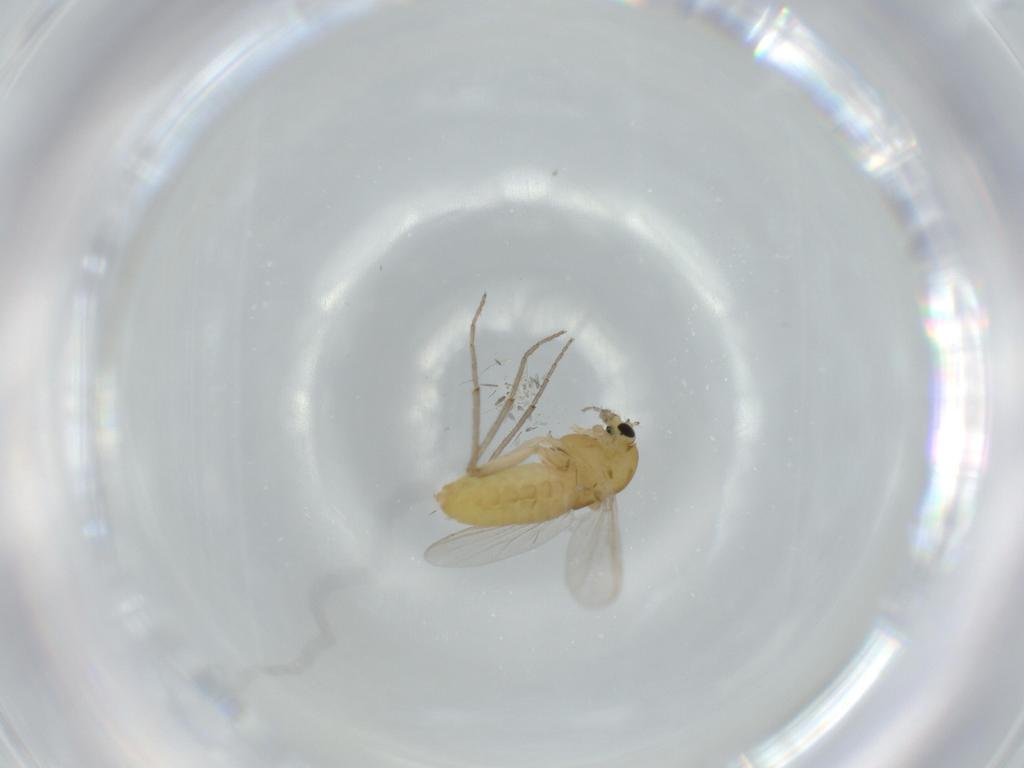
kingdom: Animalia
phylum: Arthropoda
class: Insecta
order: Diptera
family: Chironomidae
